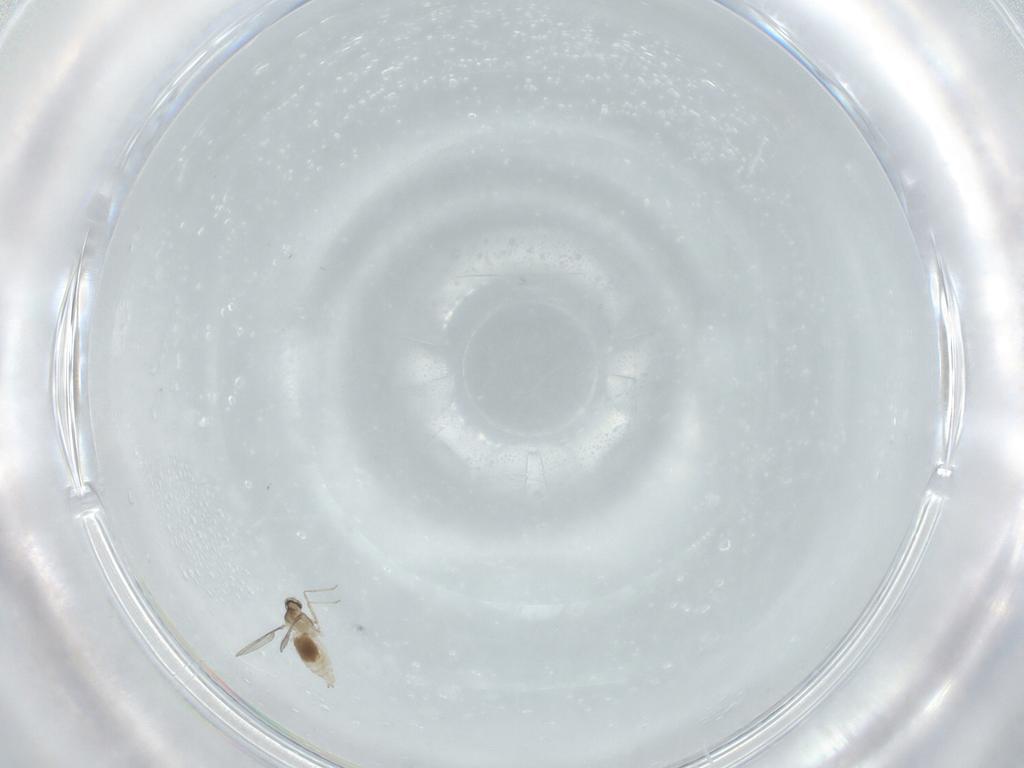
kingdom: Animalia
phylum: Arthropoda
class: Insecta
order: Diptera
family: Cecidomyiidae
